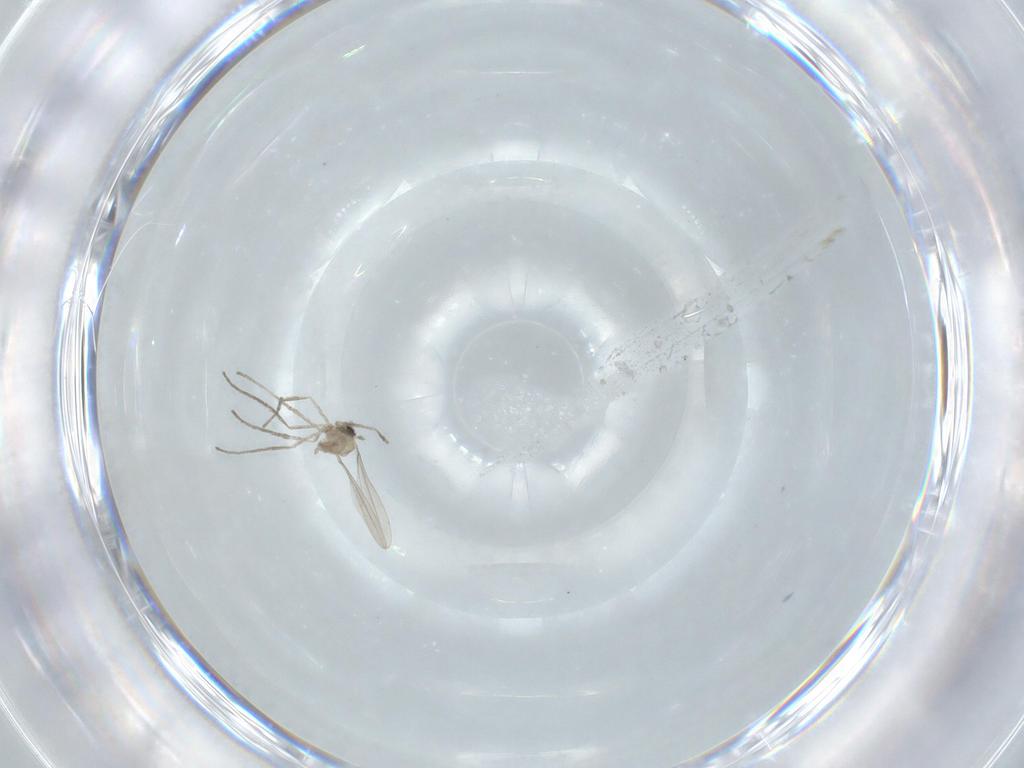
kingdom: Animalia
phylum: Arthropoda
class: Insecta
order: Diptera
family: Cecidomyiidae
